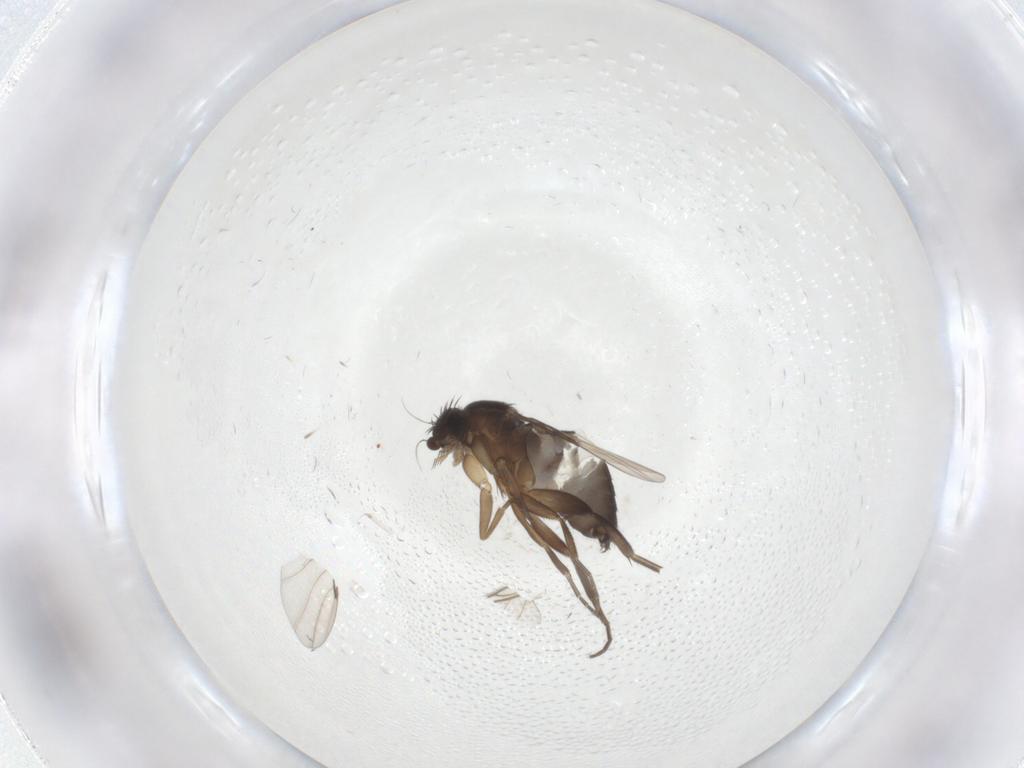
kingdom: Animalia
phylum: Arthropoda
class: Insecta
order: Diptera
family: Phoridae
